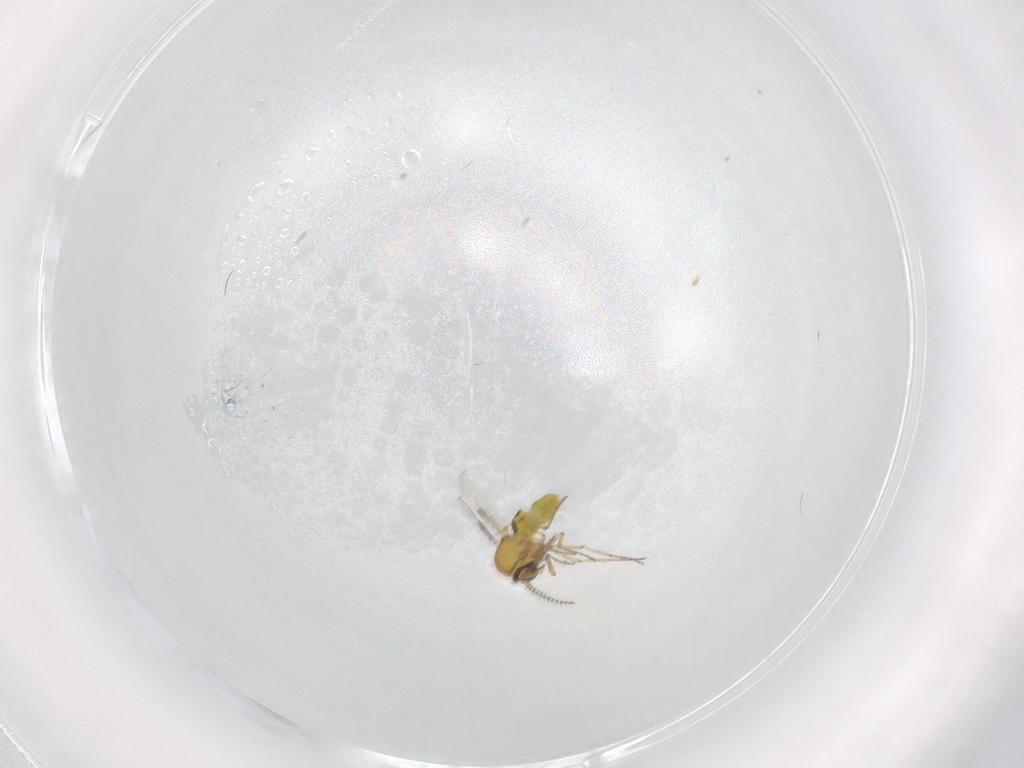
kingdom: Animalia
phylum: Arthropoda
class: Insecta
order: Diptera
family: Ceratopogonidae
